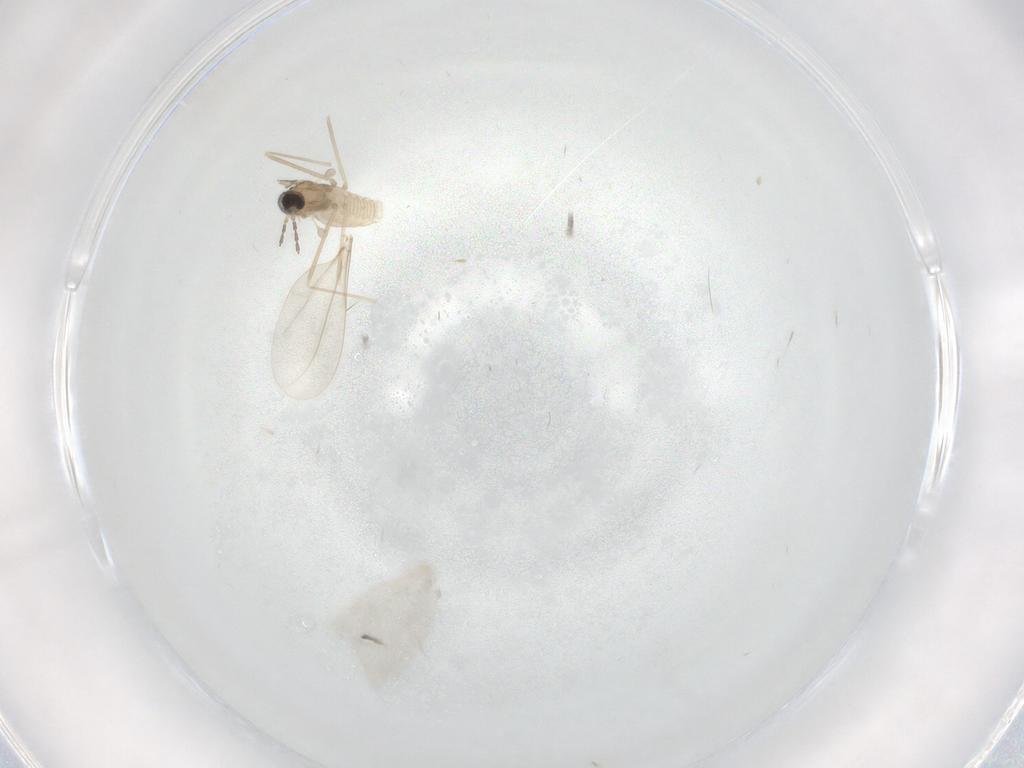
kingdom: Animalia
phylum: Arthropoda
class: Insecta
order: Diptera
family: Cecidomyiidae
